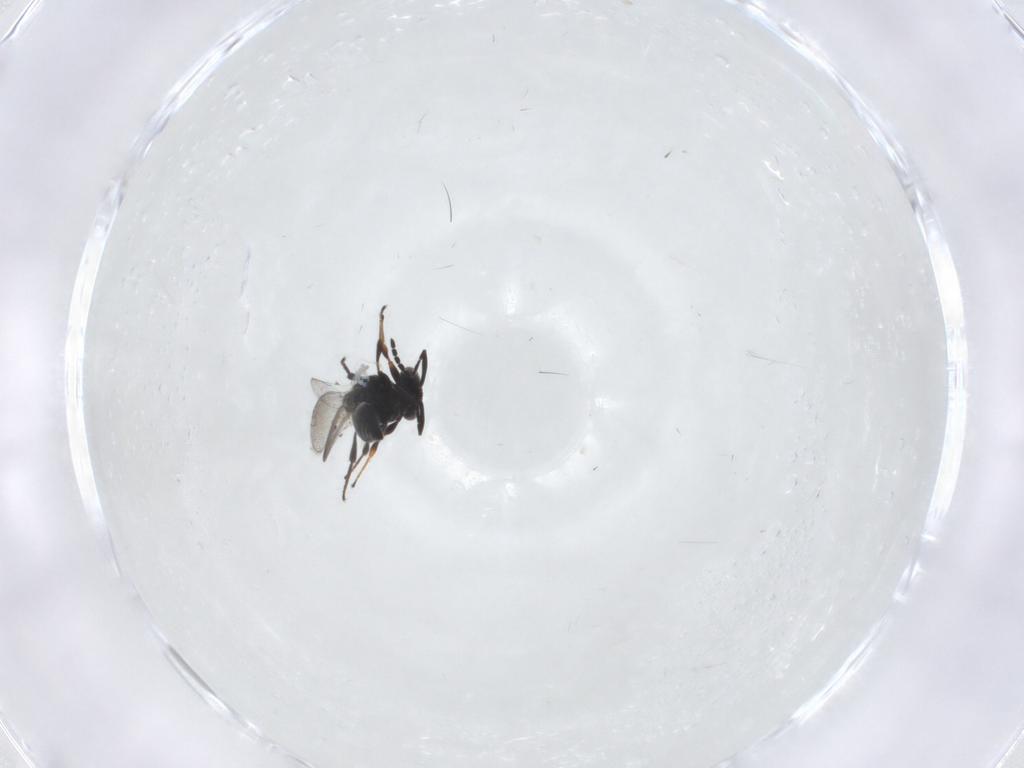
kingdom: Animalia
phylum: Arthropoda
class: Insecta
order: Hymenoptera
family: Platygastridae
